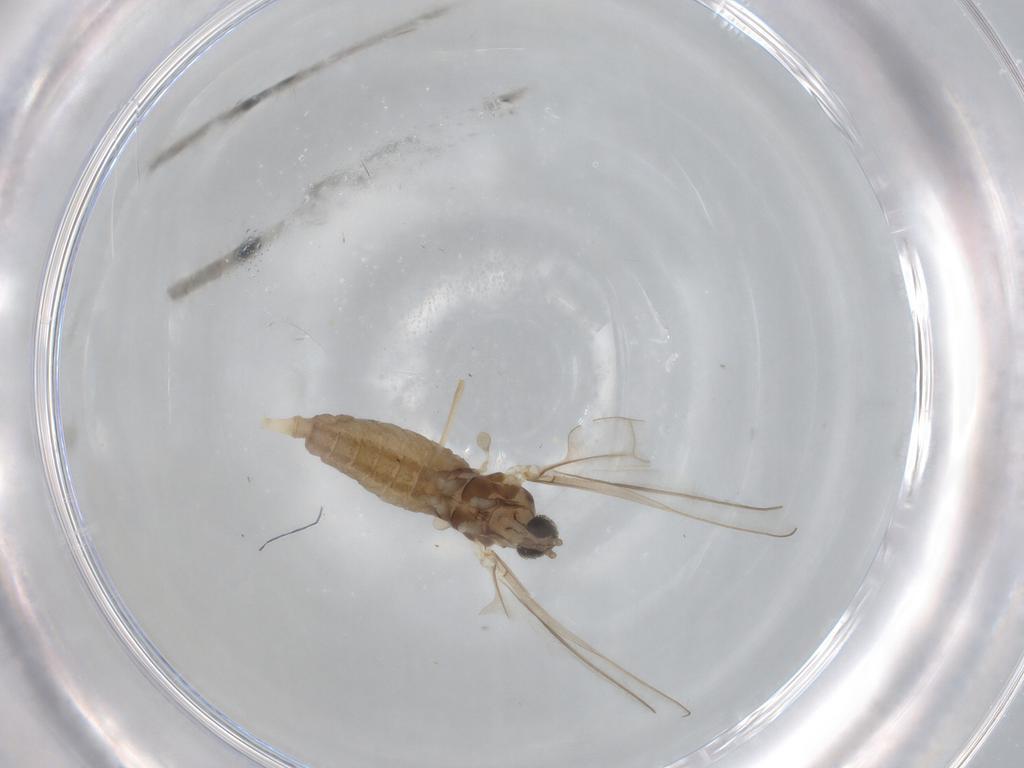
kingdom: Animalia
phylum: Arthropoda
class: Insecta
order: Diptera
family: Cecidomyiidae
